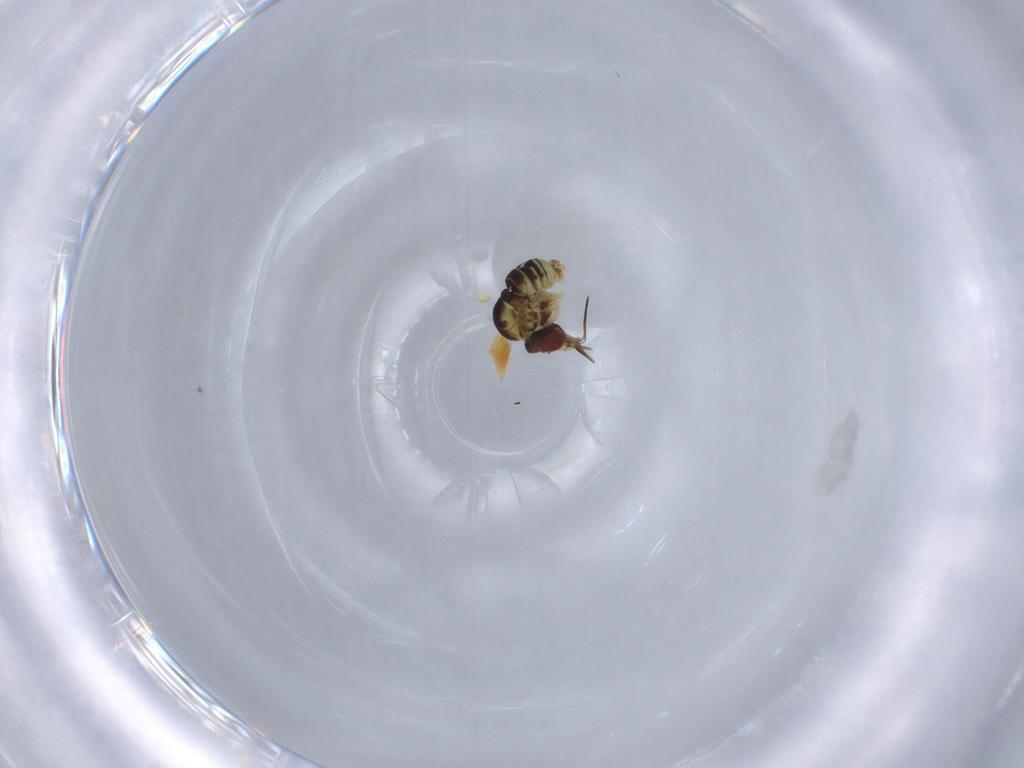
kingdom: Animalia
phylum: Arthropoda
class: Insecta
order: Diptera
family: Phoridae
